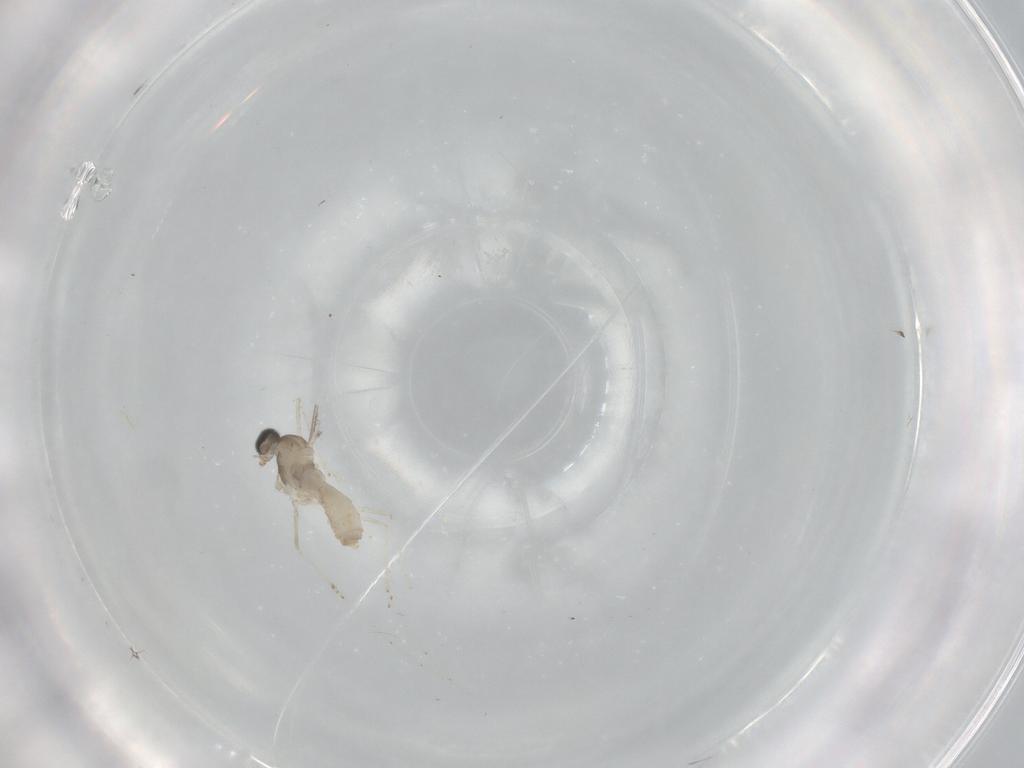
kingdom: Animalia
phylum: Arthropoda
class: Insecta
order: Diptera
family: Cecidomyiidae
